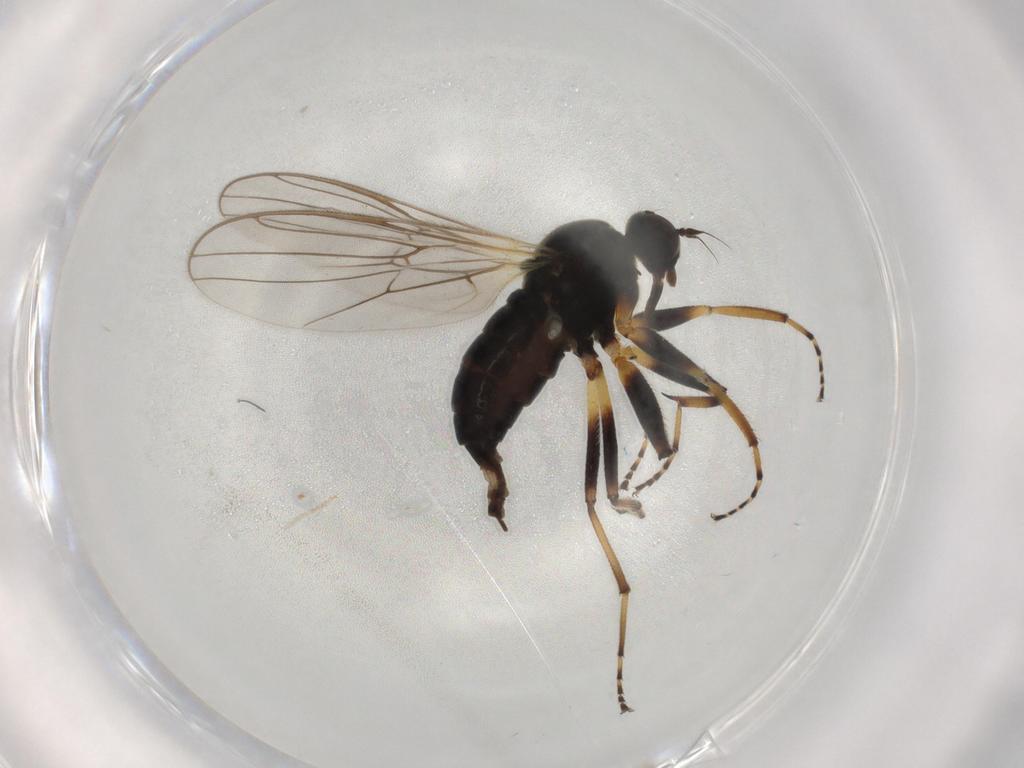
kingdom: Animalia
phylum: Arthropoda
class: Insecta
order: Diptera
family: Hybotidae
